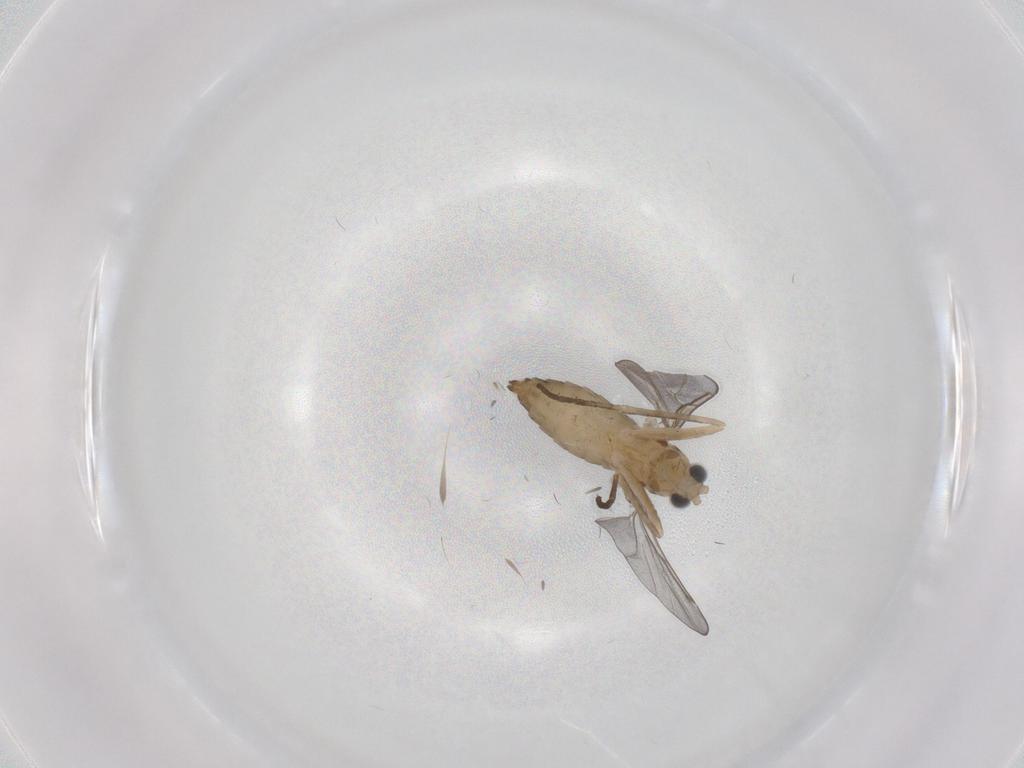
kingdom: Animalia
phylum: Arthropoda
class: Insecta
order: Diptera
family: Cecidomyiidae
